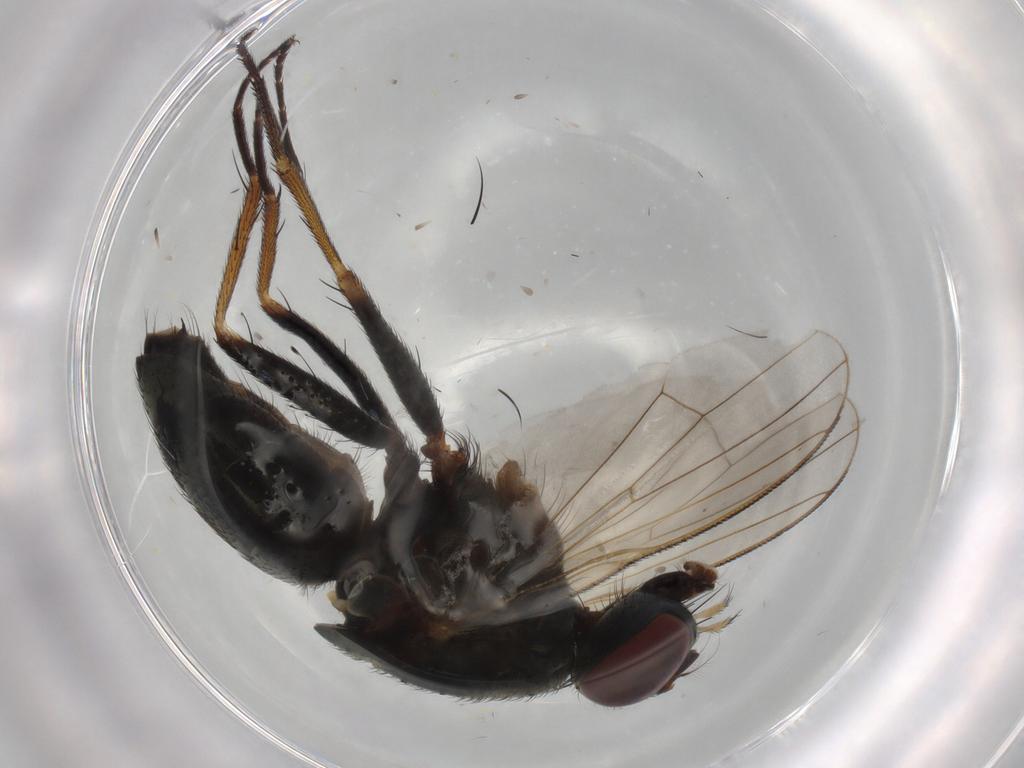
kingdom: Animalia
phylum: Arthropoda
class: Insecta
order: Diptera
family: Muscidae
